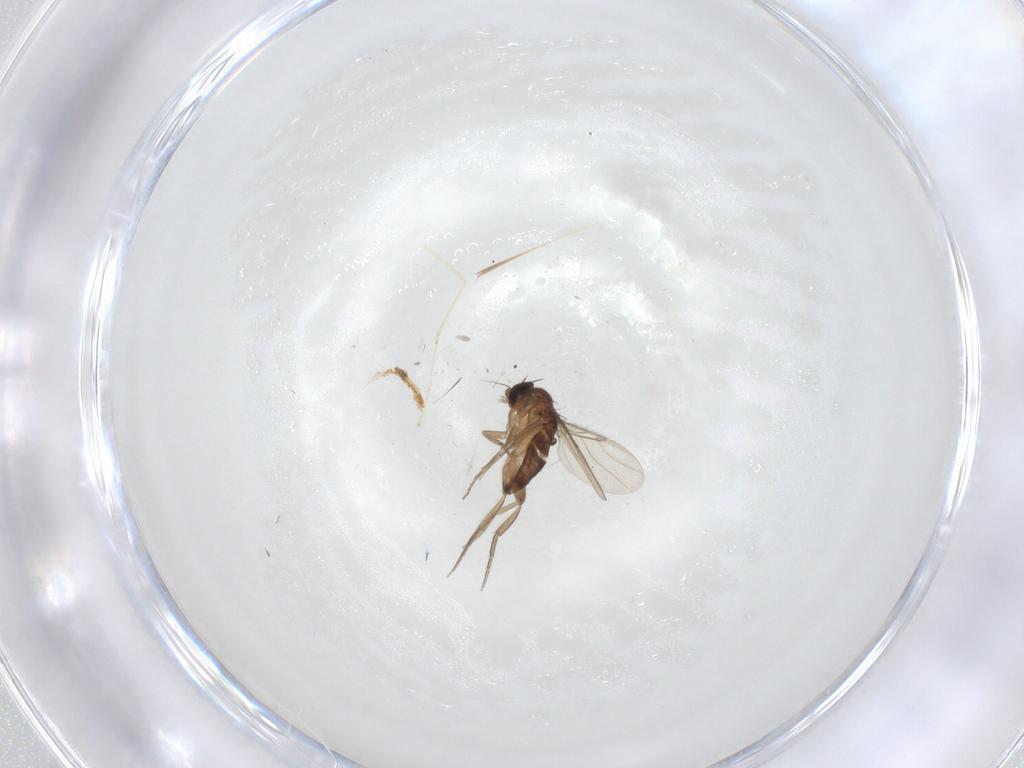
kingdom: Animalia
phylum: Arthropoda
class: Insecta
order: Diptera
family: Phoridae
